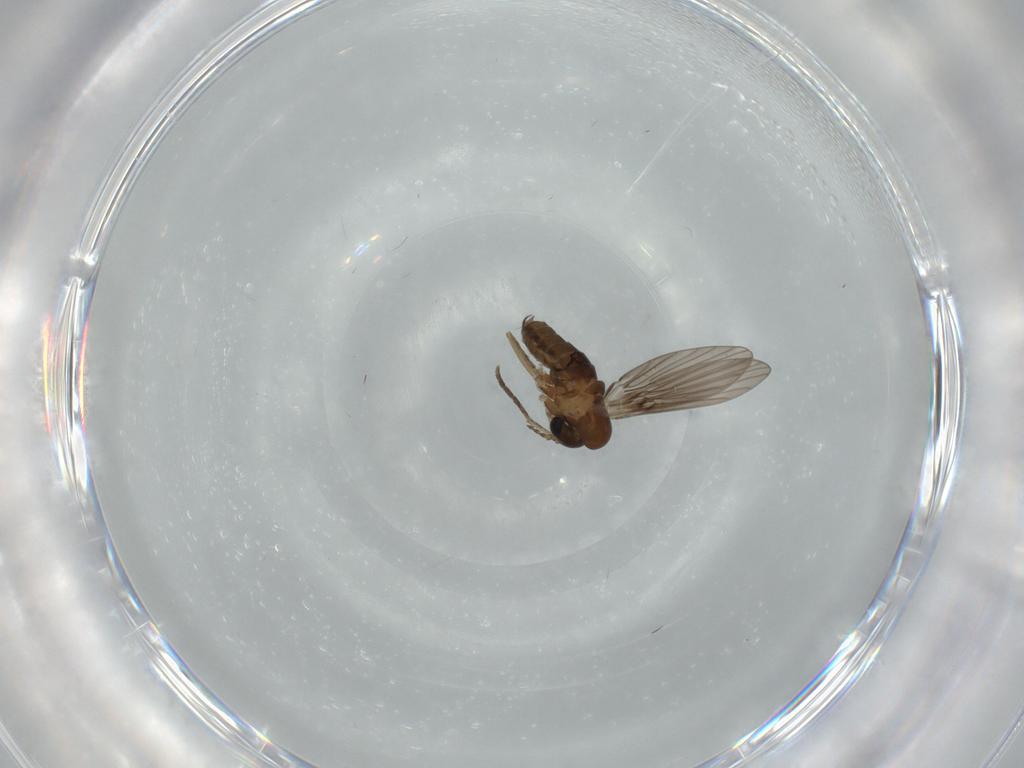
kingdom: Animalia
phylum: Arthropoda
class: Insecta
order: Diptera
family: Psychodidae
